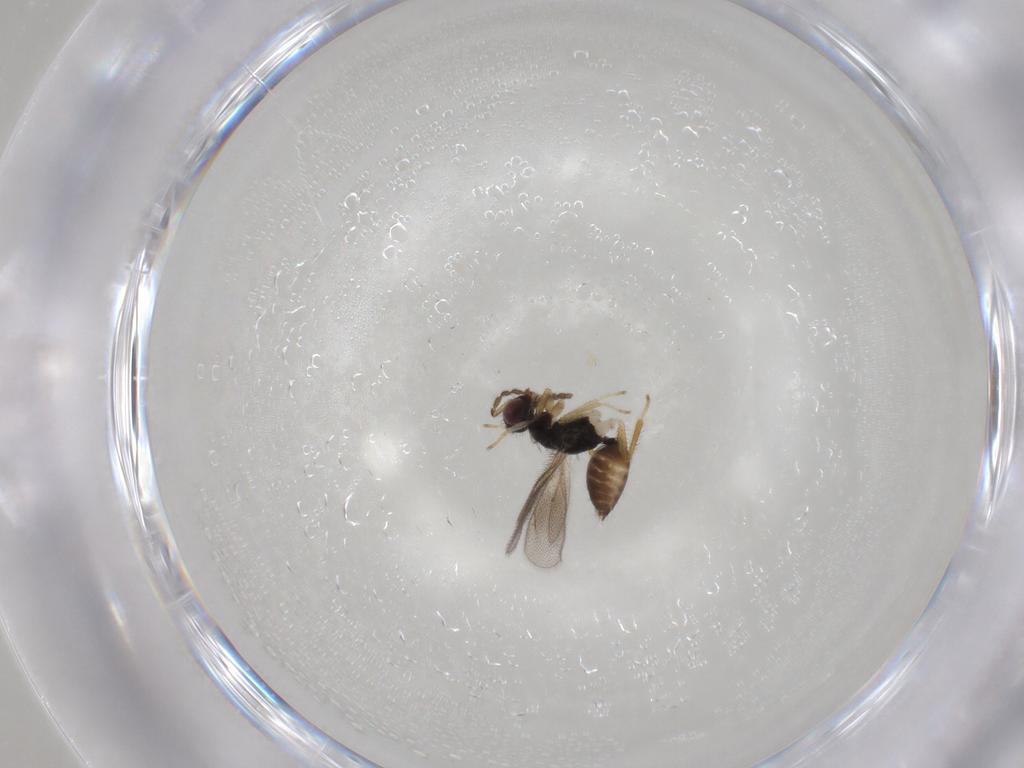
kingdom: Animalia
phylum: Arthropoda
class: Insecta
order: Hymenoptera
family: Eulophidae
